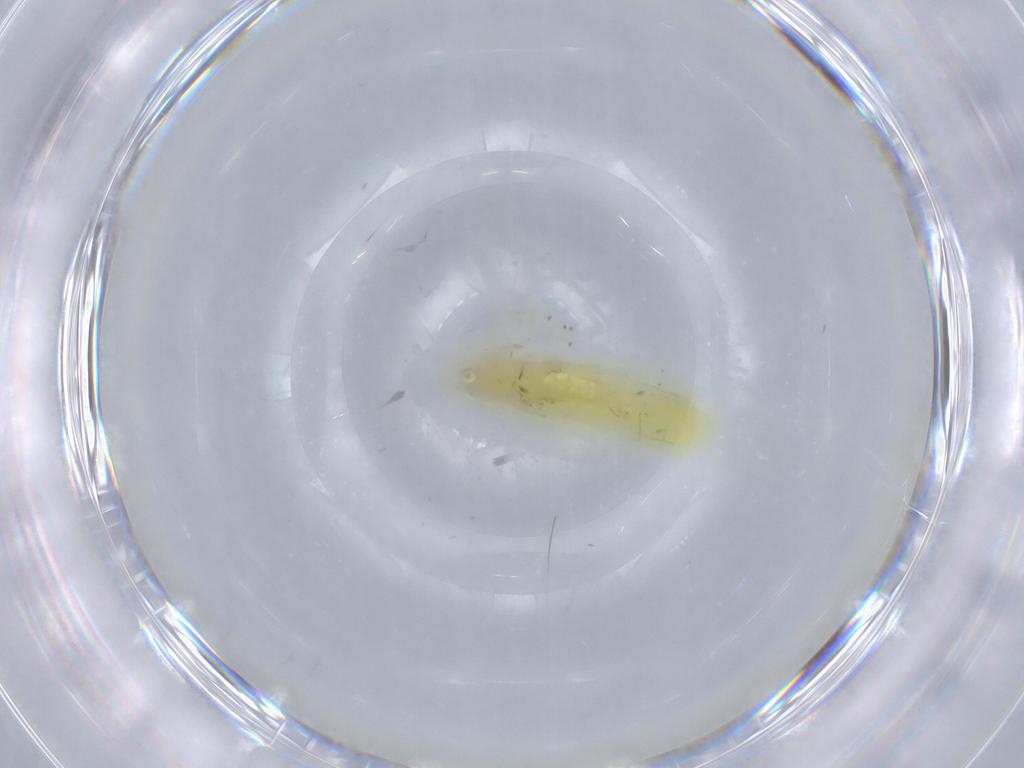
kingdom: Animalia
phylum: Arthropoda
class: Insecta
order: Hemiptera
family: Cicadellidae
